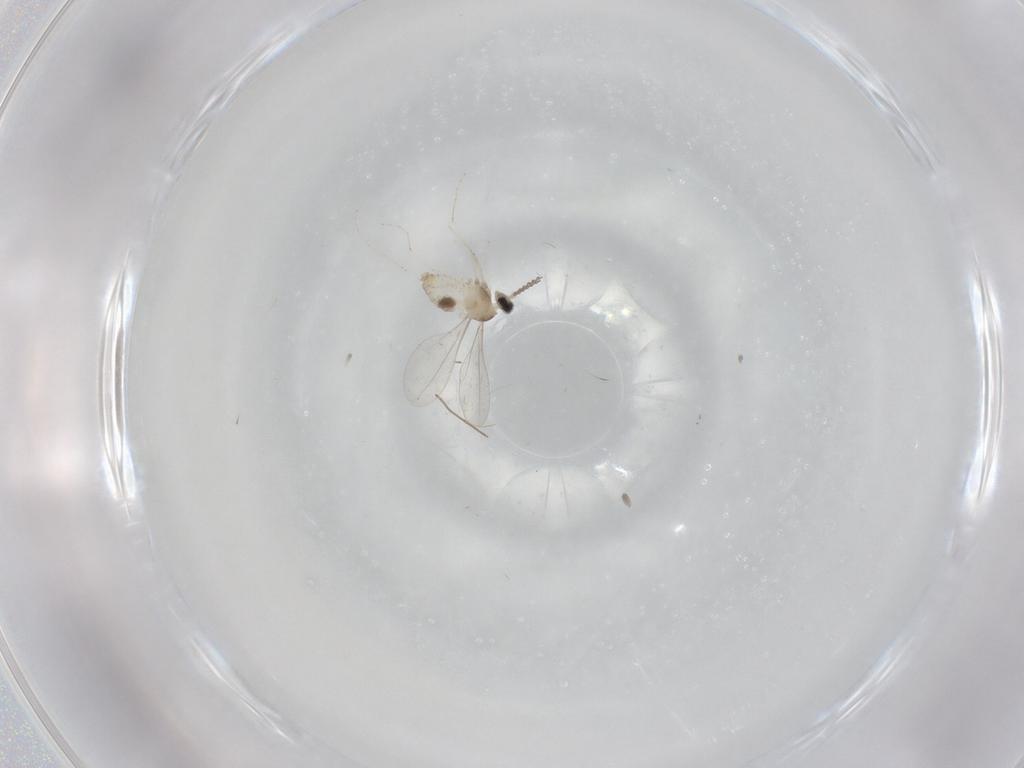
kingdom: Animalia
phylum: Arthropoda
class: Insecta
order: Diptera
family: Cecidomyiidae
